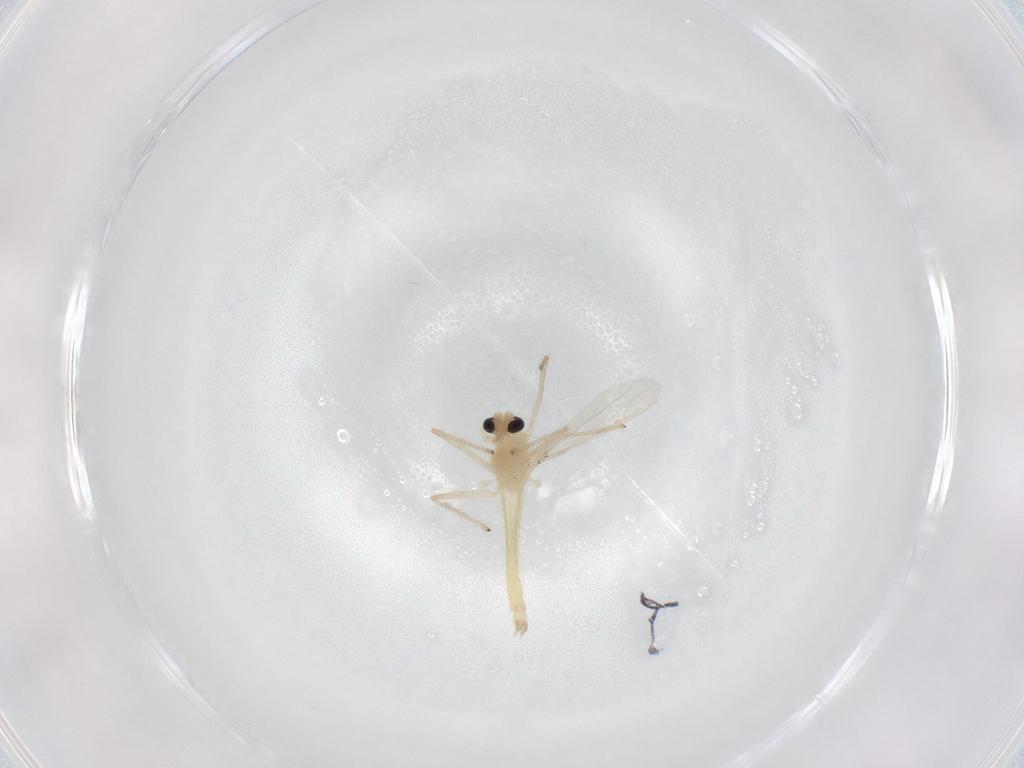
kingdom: Animalia
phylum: Arthropoda
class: Insecta
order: Diptera
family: Chironomidae
